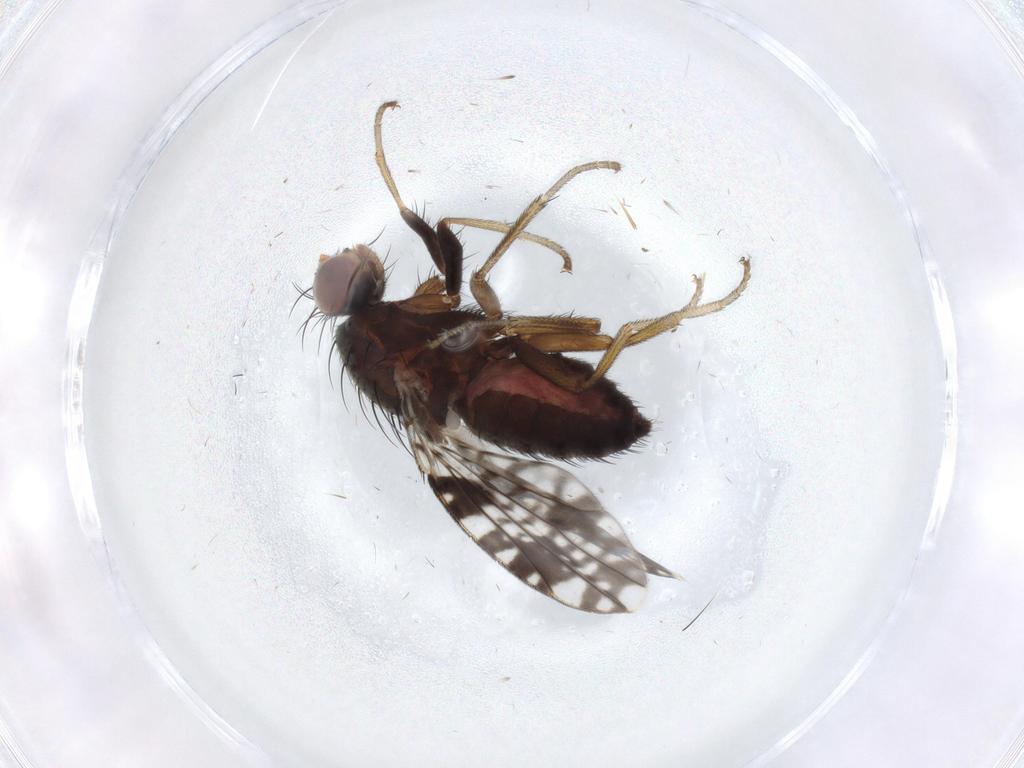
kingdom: Animalia
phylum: Arthropoda
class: Insecta
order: Diptera
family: Tephritidae
